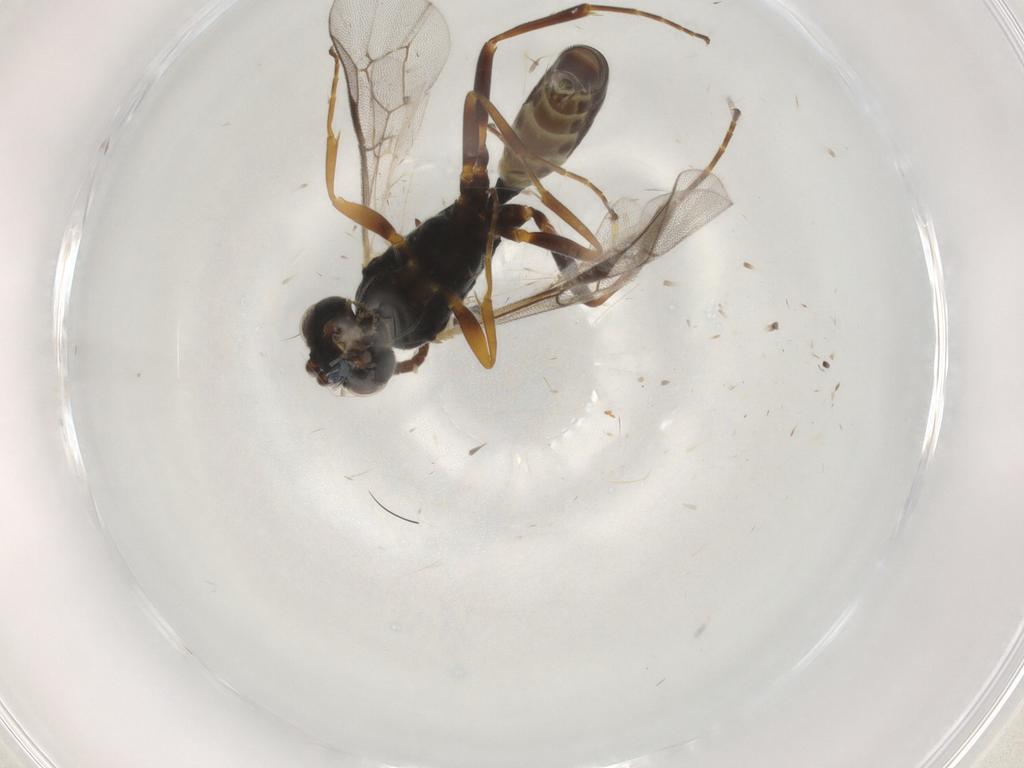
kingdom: Animalia
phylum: Arthropoda
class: Insecta
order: Hymenoptera
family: Ichneumonidae
